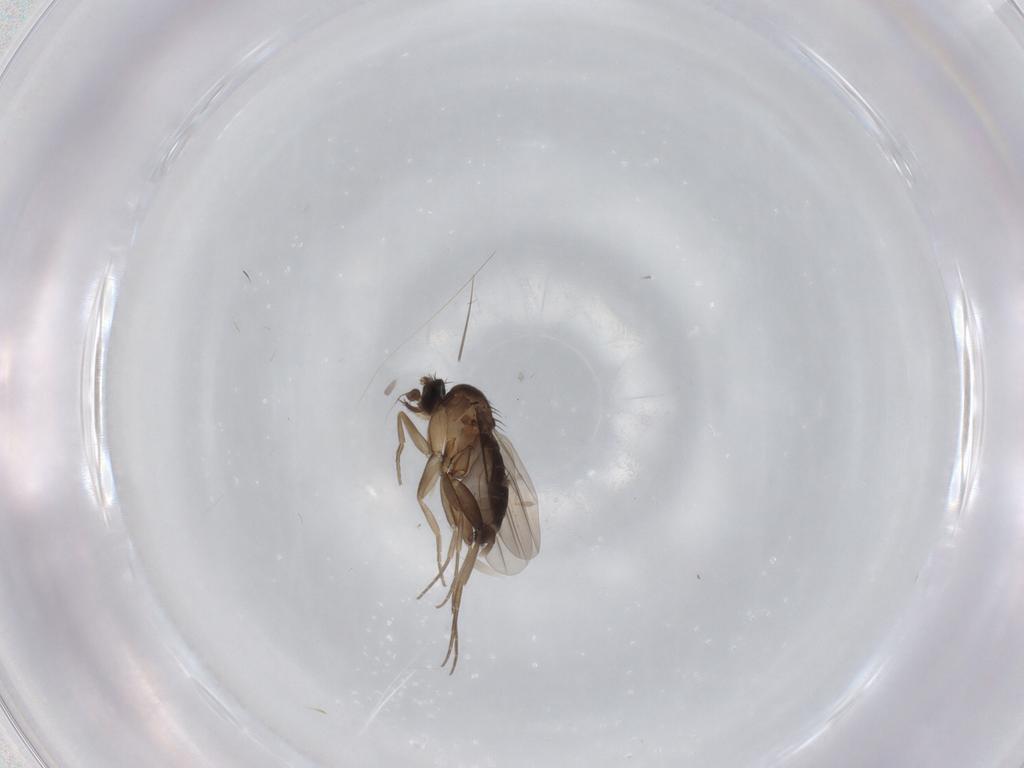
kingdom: Animalia
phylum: Arthropoda
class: Insecta
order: Diptera
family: Phoridae
